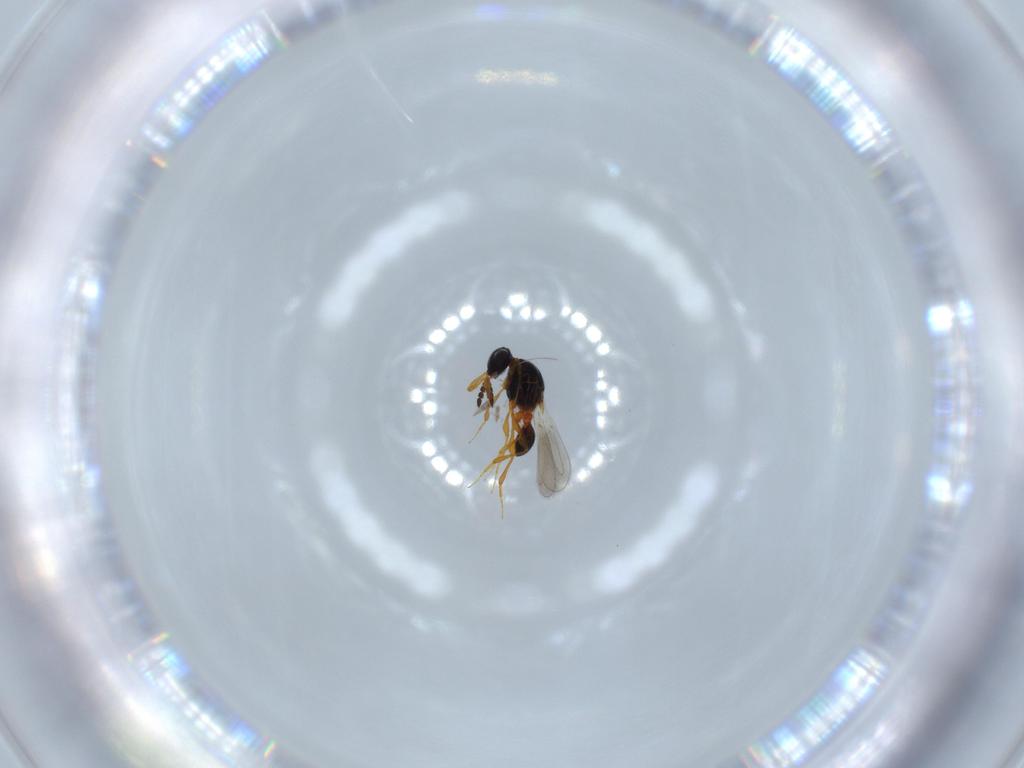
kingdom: Animalia
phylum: Arthropoda
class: Insecta
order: Hymenoptera
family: Platygastridae
